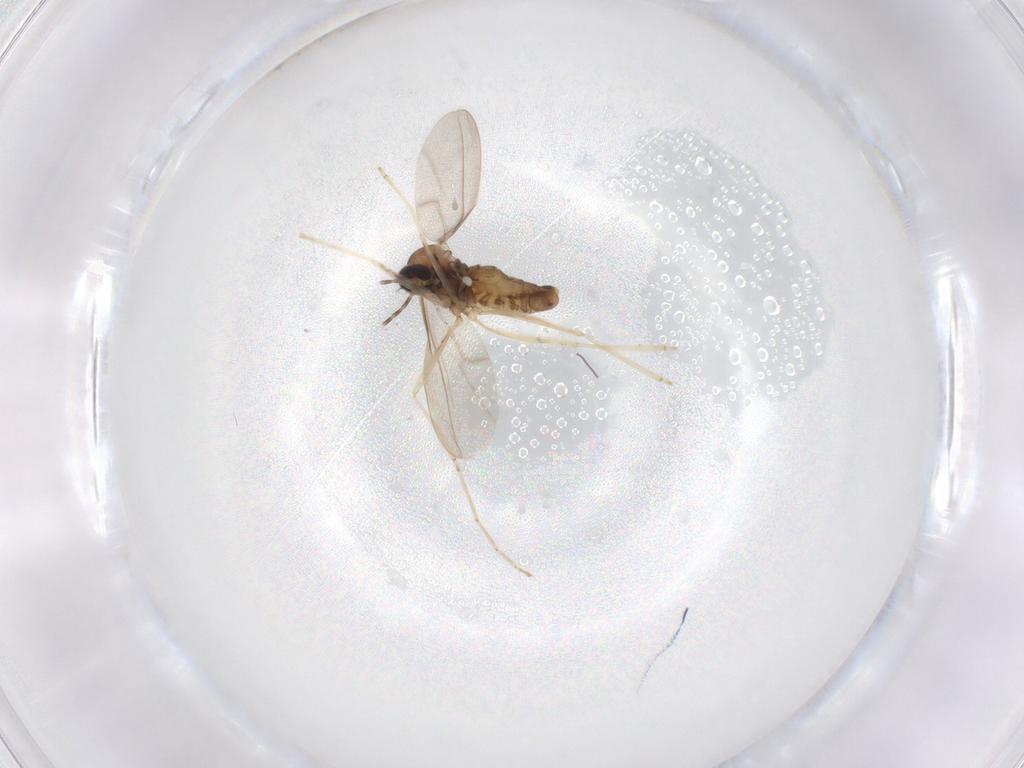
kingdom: Animalia
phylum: Arthropoda
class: Insecta
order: Diptera
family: Cecidomyiidae
